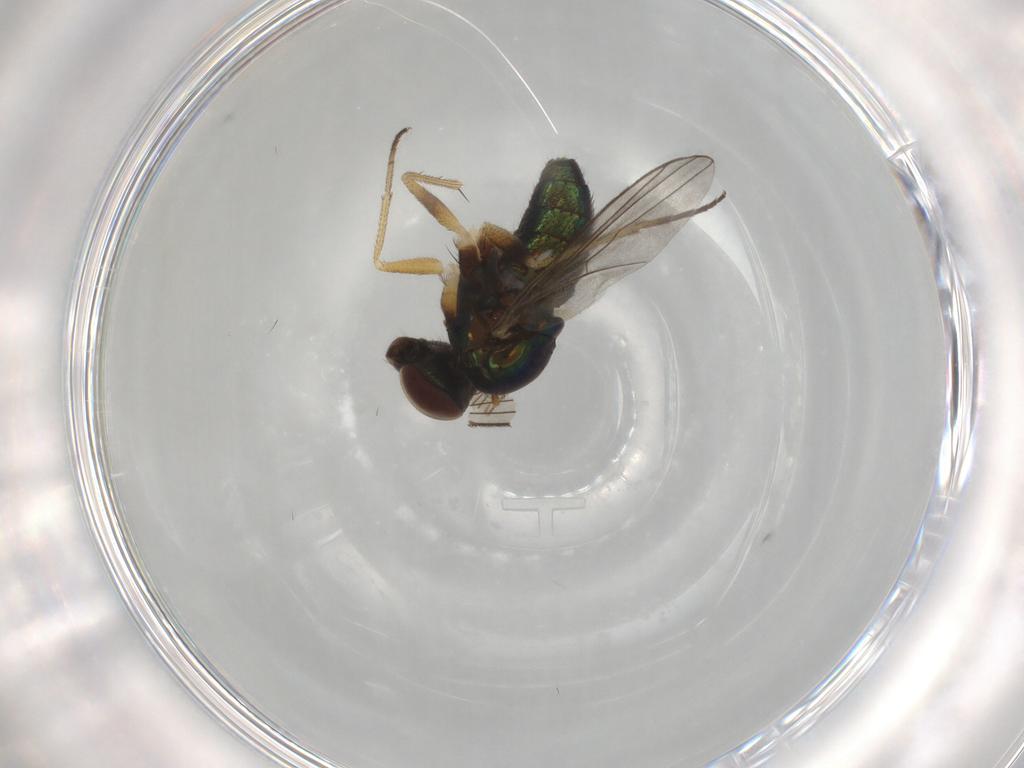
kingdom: Animalia
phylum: Arthropoda
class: Insecta
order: Diptera
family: Pipunculidae
